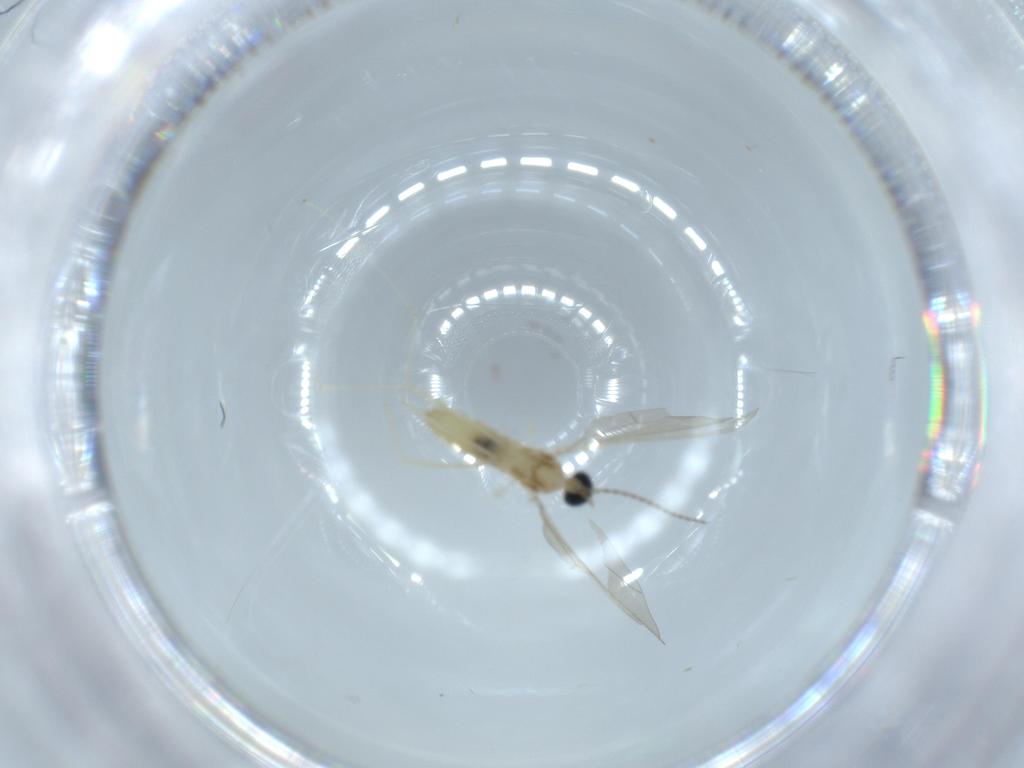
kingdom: Animalia
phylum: Arthropoda
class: Insecta
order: Diptera
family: Cecidomyiidae
